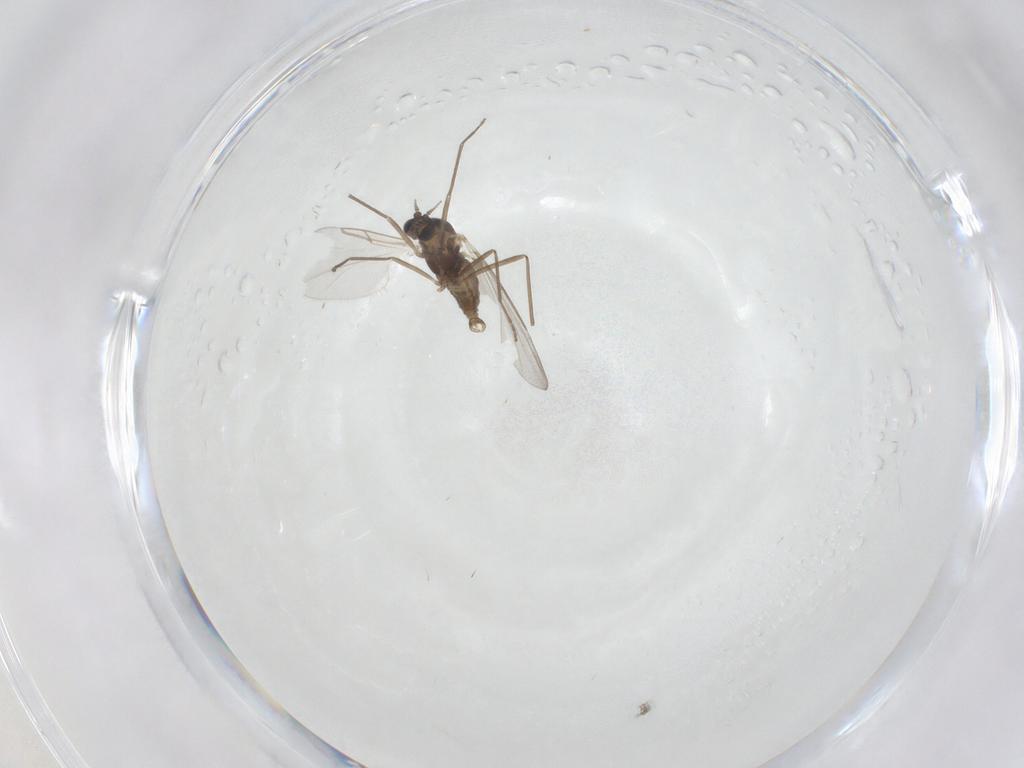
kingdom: Animalia
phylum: Arthropoda
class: Insecta
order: Diptera
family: Cecidomyiidae
